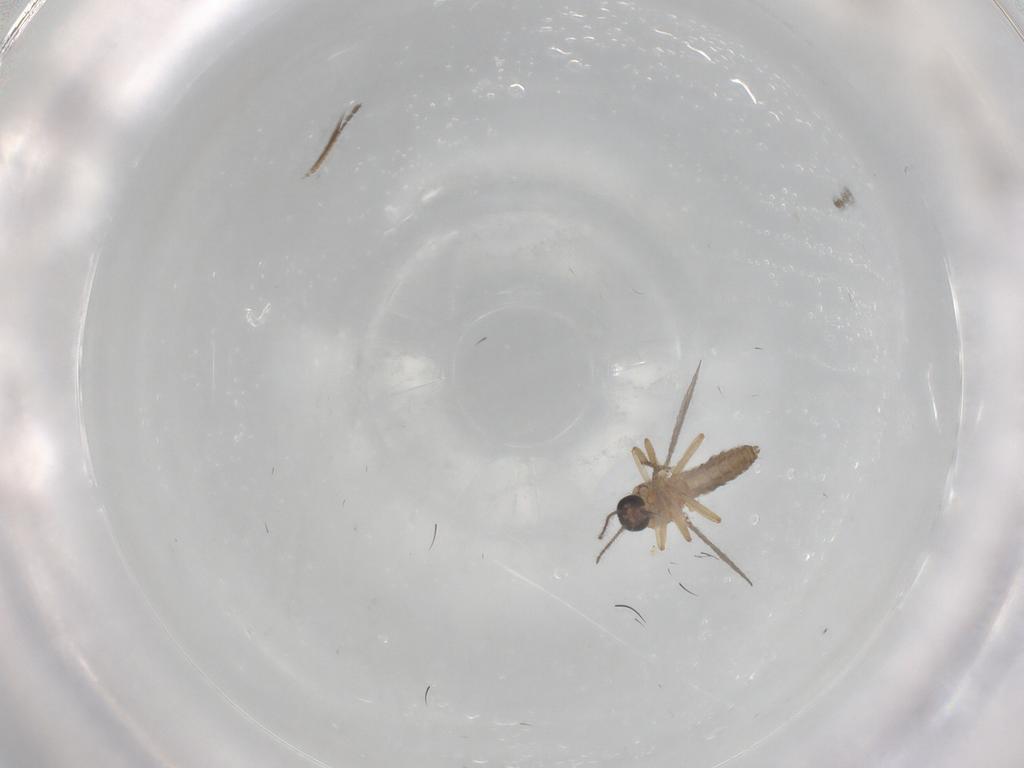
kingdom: Animalia
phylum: Arthropoda
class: Insecta
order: Diptera
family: Ceratopogonidae
